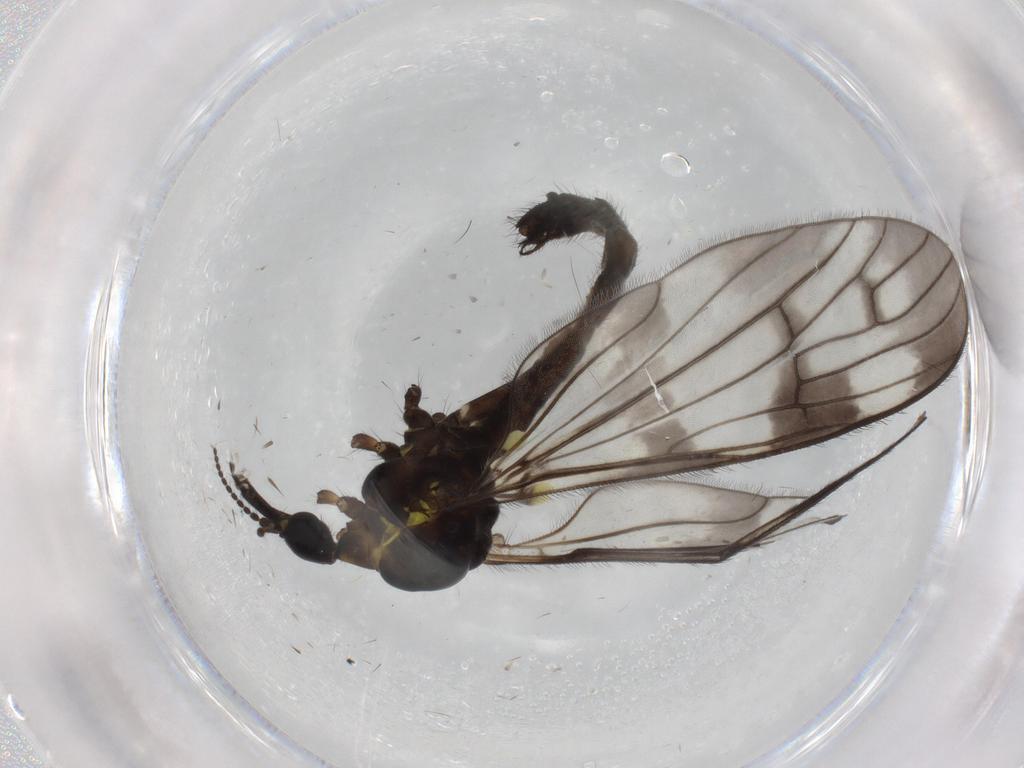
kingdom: Animalia
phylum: Arthropoda
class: Insecta
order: Diptera
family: Limoniidae
